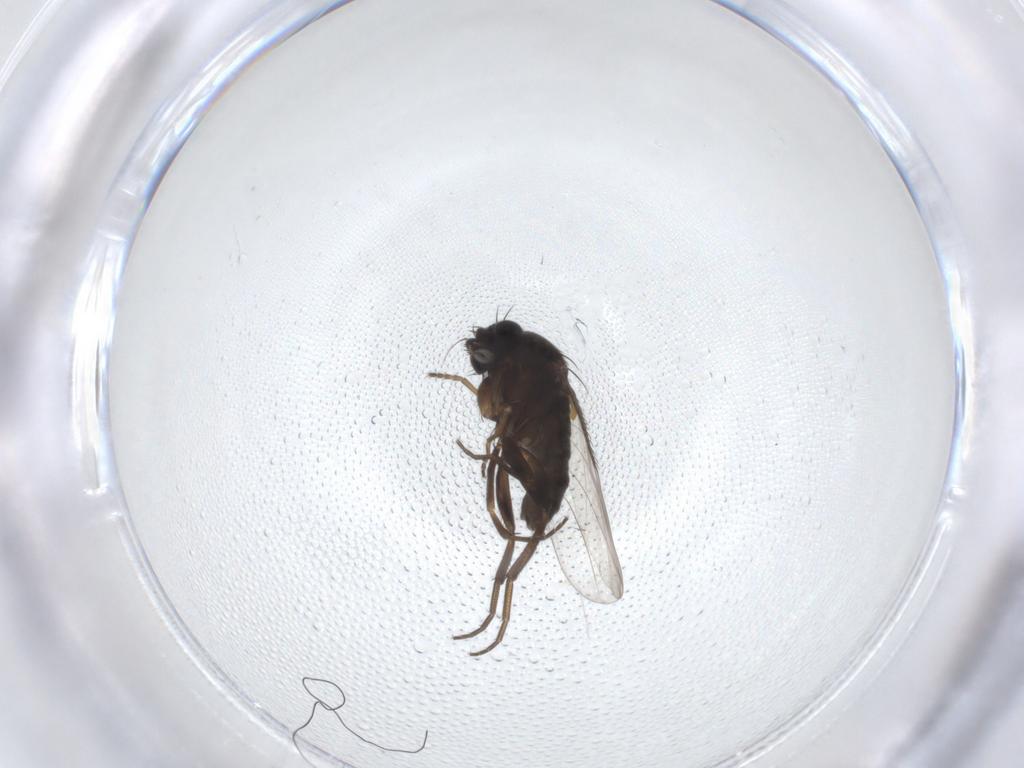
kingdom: Animalia
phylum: Arthropoda
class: Insecta
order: Diptera
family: Phoridae
